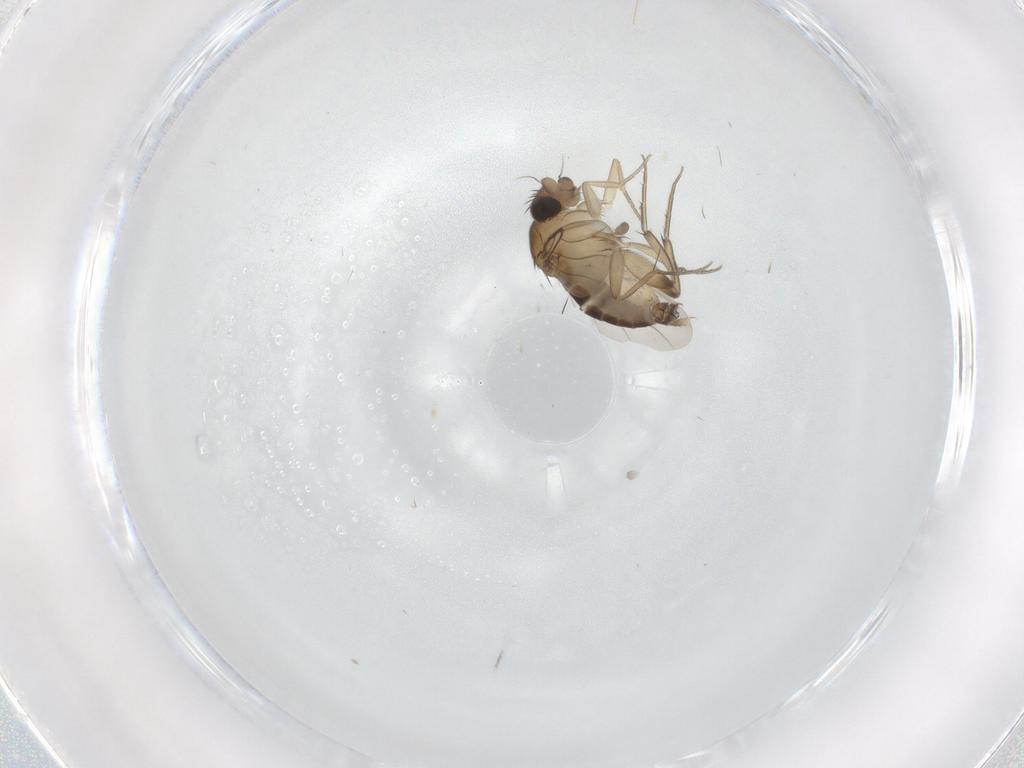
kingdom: Animalia
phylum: Arthropoda
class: Insecta
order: Diptera
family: Phoridae
